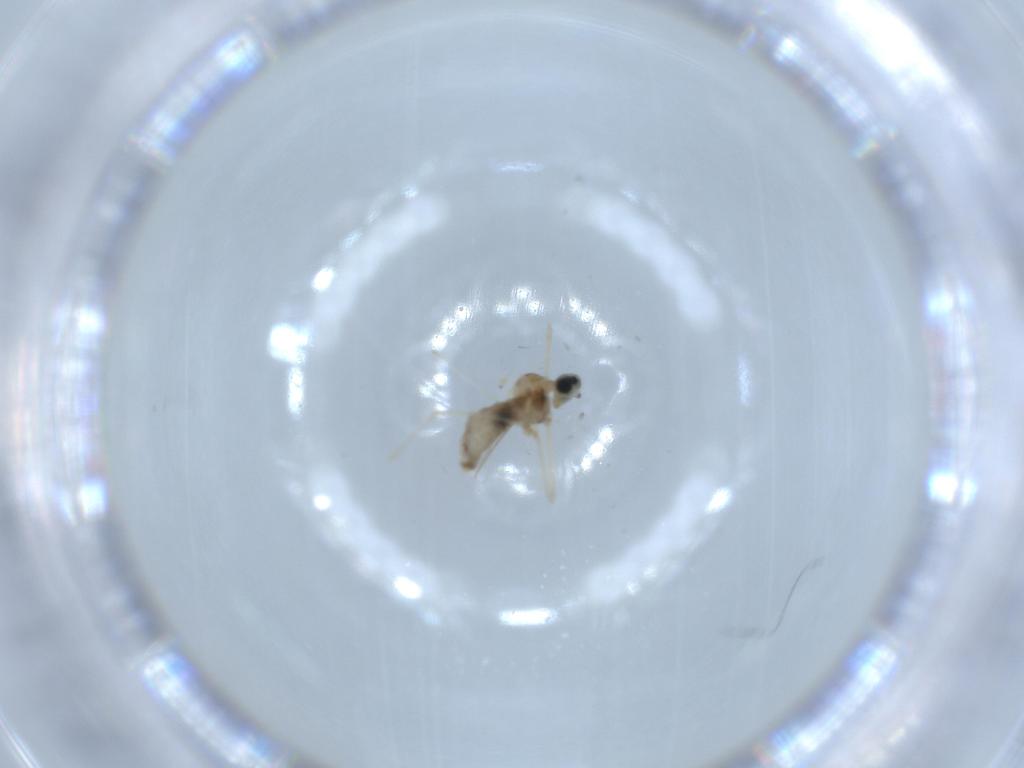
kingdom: Animalia
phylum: Arthropoda
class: Insecta
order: Diptera
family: Cecidomyiidae
